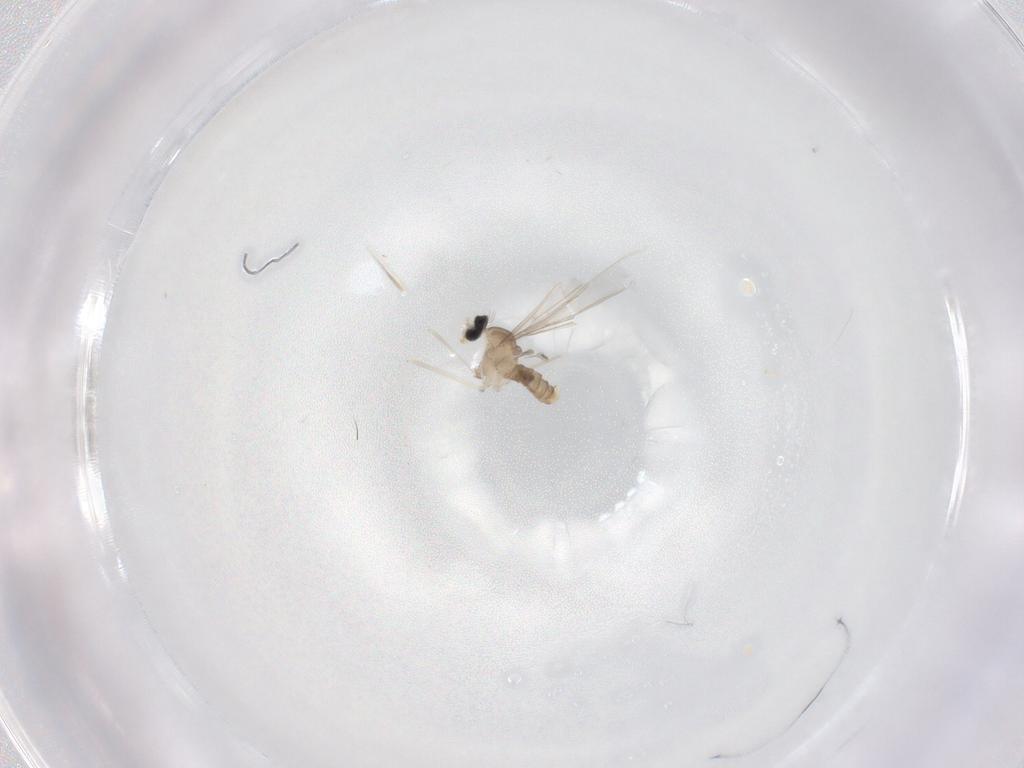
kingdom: Animalia
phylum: Arthropoda
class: Insecta
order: Diptera
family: Cecidomyiidae
